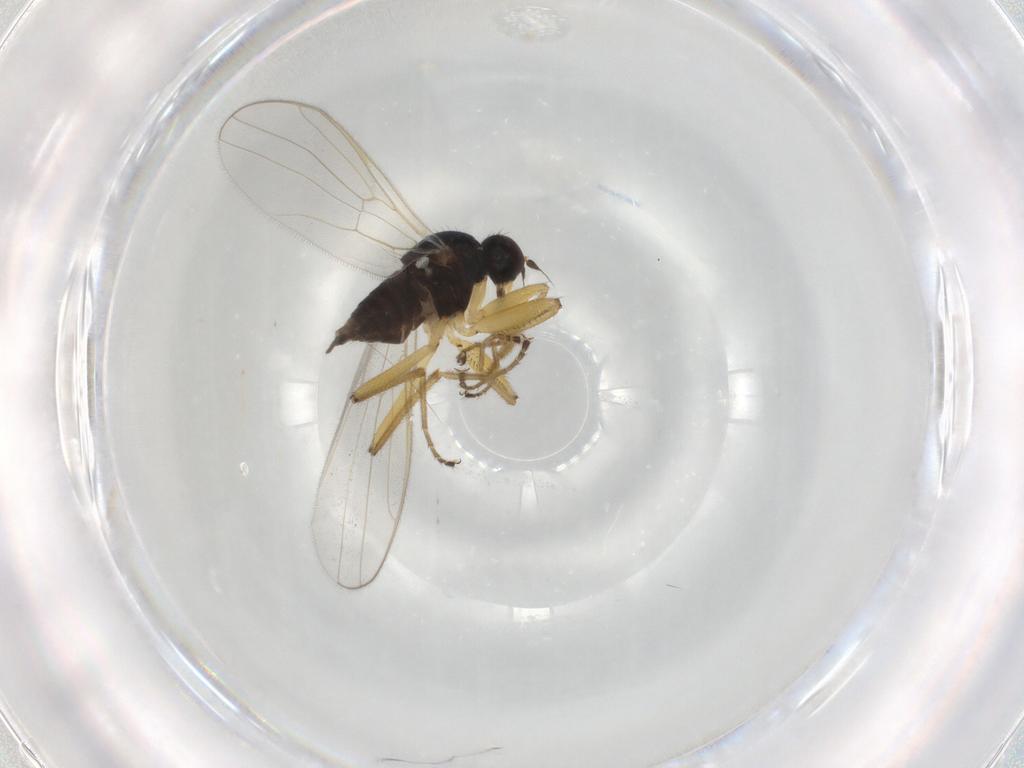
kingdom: Animalia
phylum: Arthropoda
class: Insecta
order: Diptera
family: Hybotidae
